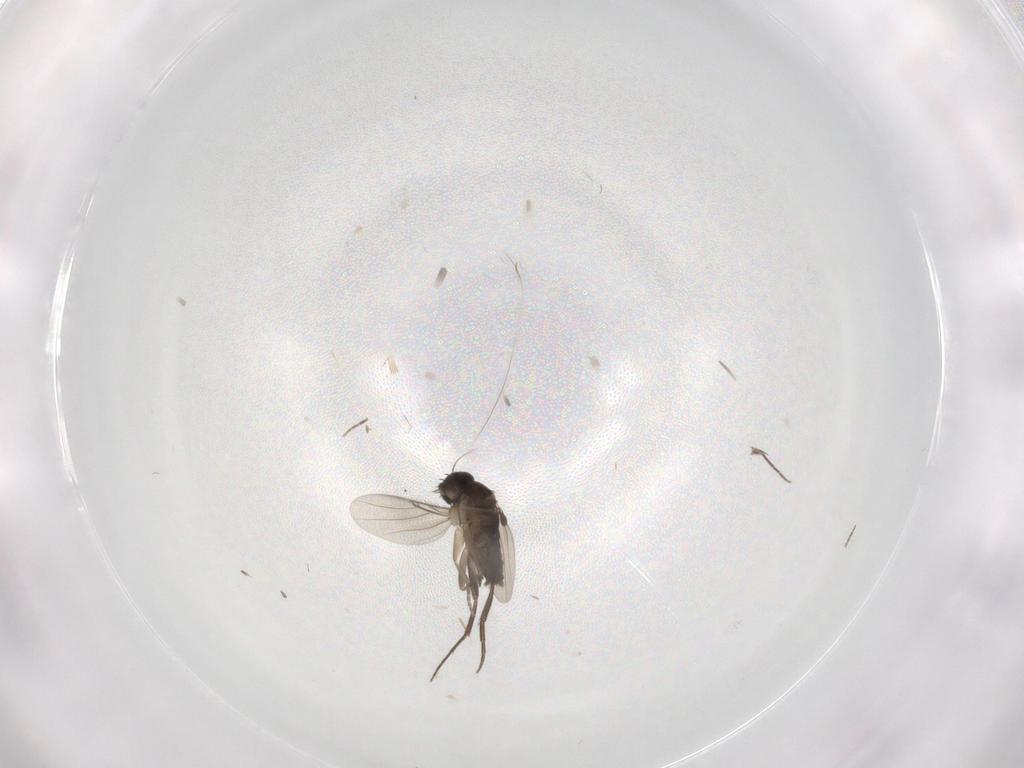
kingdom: Animalia
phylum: Arthropoda
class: Insecta
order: Diptera
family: Phoridae
